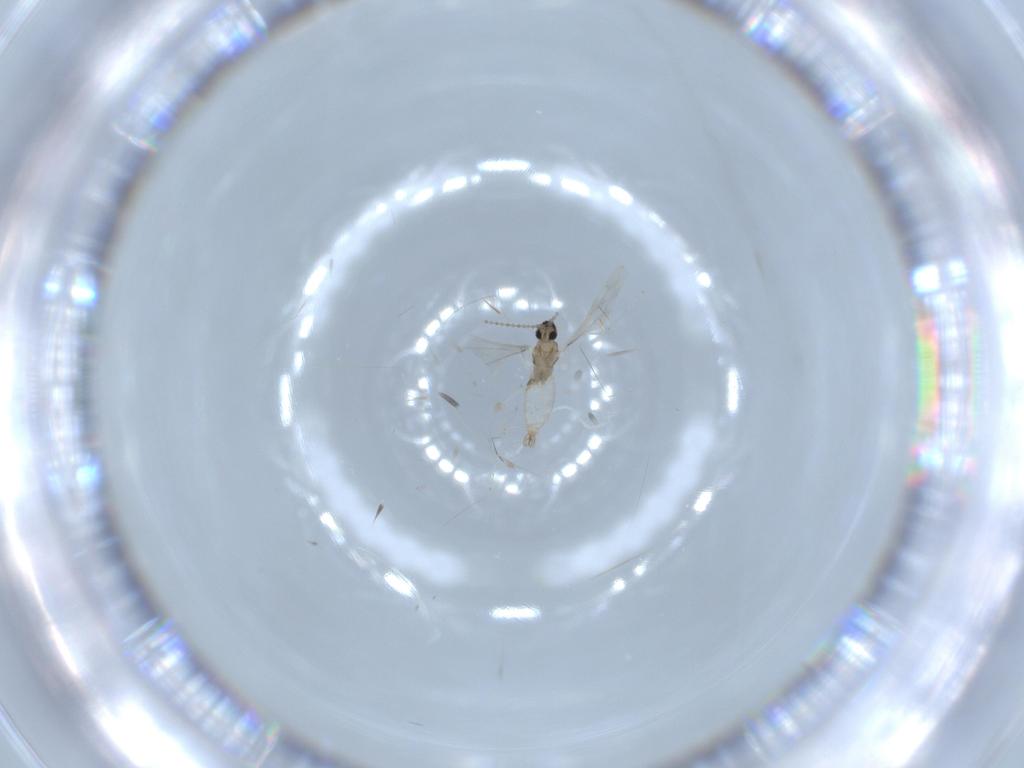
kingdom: Animalia
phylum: Arthropoda
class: Insecta
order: Diptera
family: Cecidomyiidae
